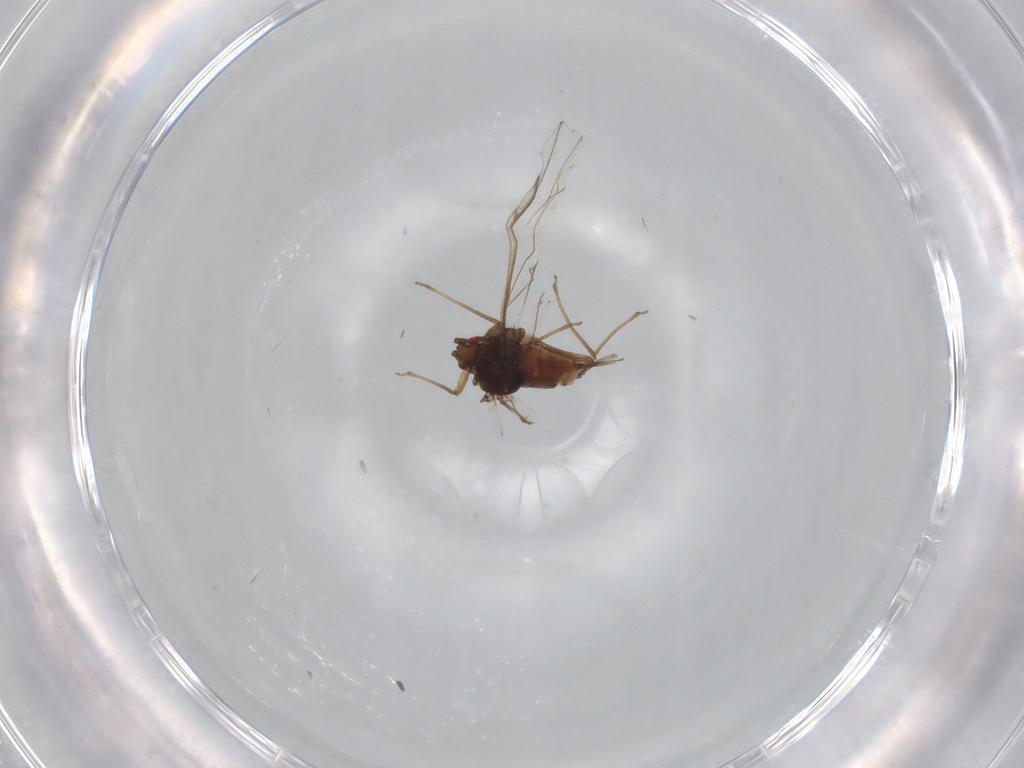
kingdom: Animalia
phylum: Arthropoda
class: Insecta
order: Hemiptera
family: Aphididae
